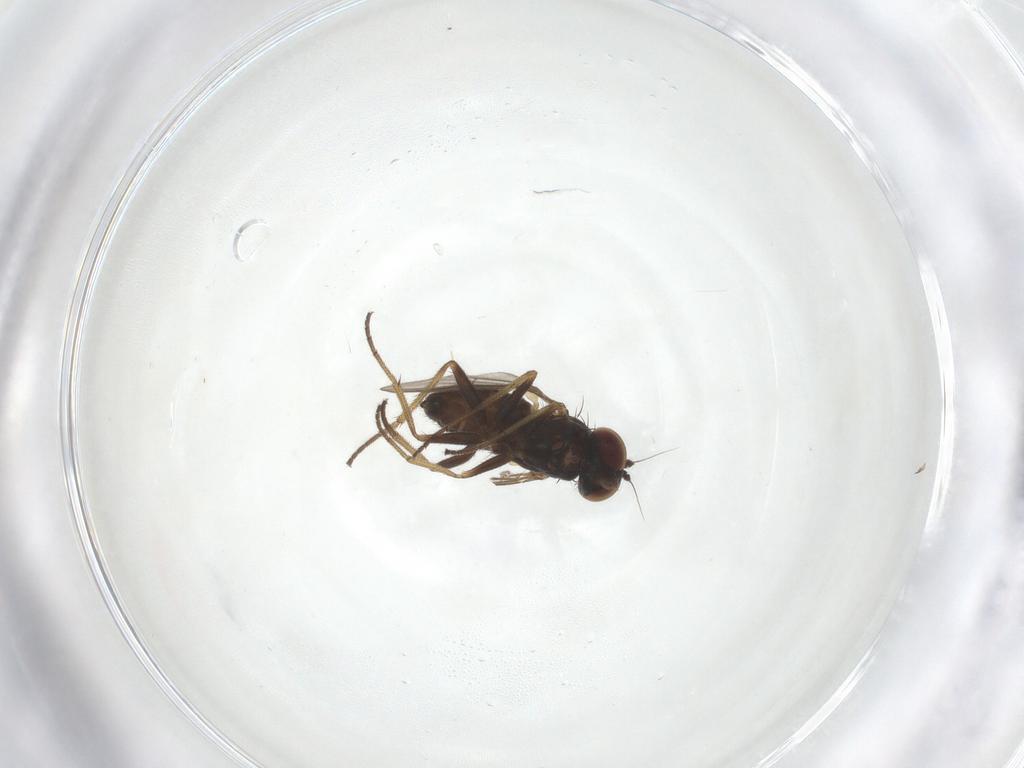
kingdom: Animalia
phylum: Arthropoda
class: Insecta
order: Diptera
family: Dolichopodidae
